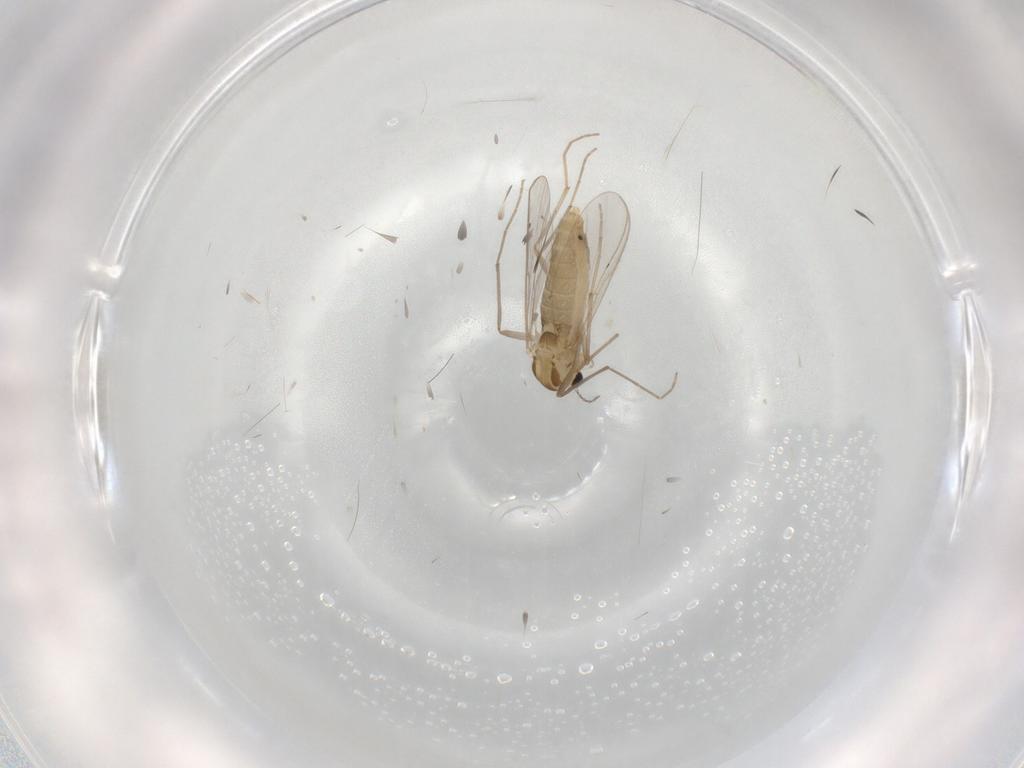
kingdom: Animalia
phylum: Arthropoda
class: Insecta
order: Diptera
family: Chironomidae
